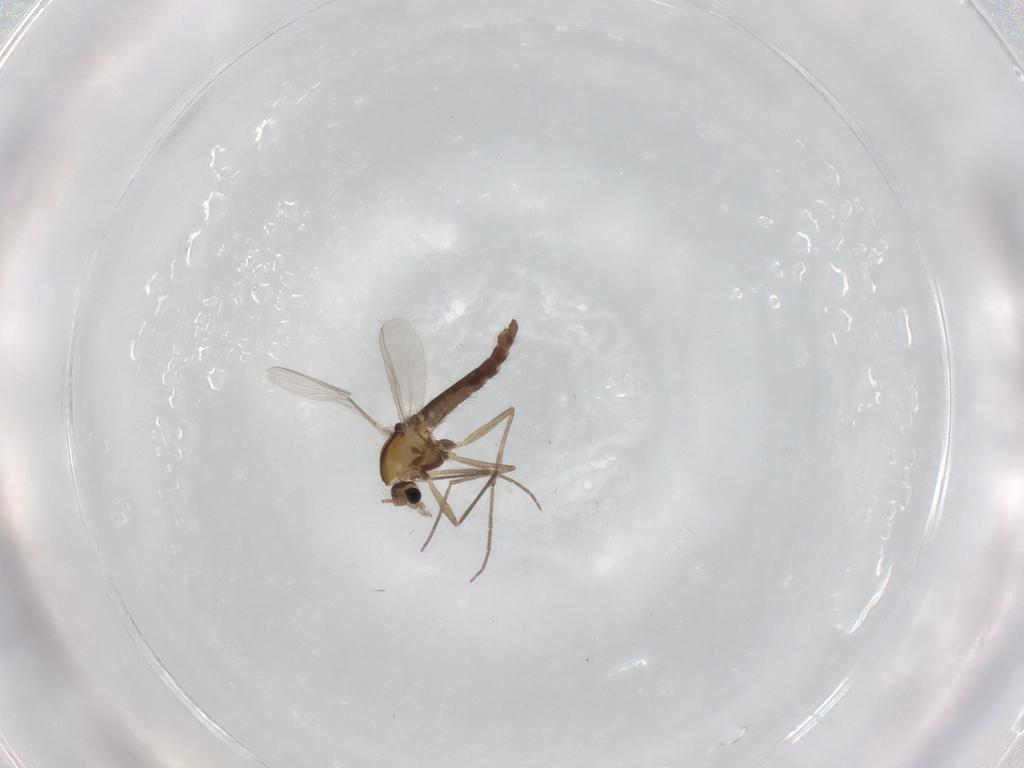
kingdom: Animalia
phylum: Arthropoda
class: Insecta
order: Diptera
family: Chironomidae
